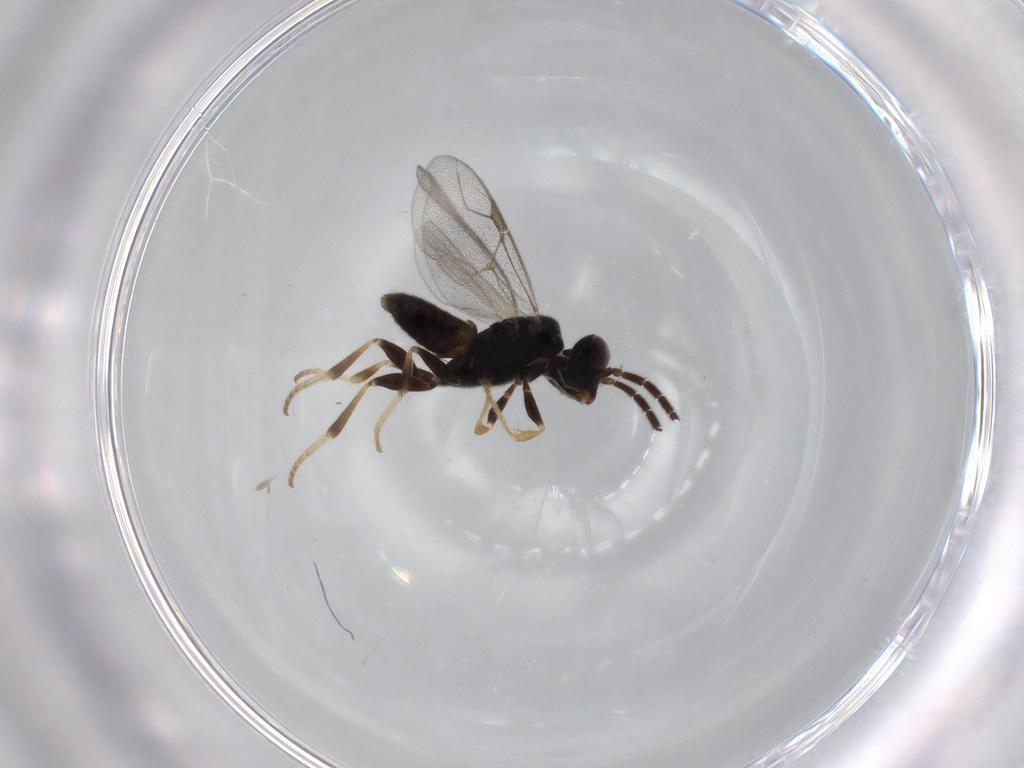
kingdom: Animalia
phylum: Arthropoda
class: Insecta
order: Hymenoptera
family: Dryinidae
